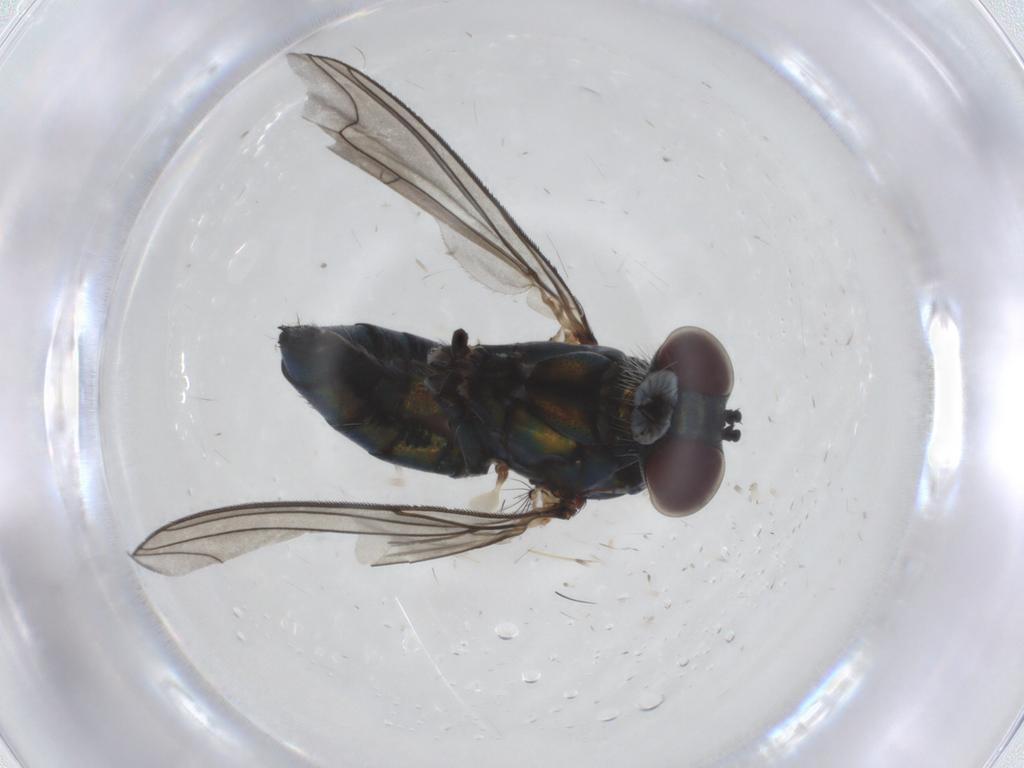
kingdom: Animalia
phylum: Arthropoda
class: Insecta
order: Diptera
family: Dolichopodidae
